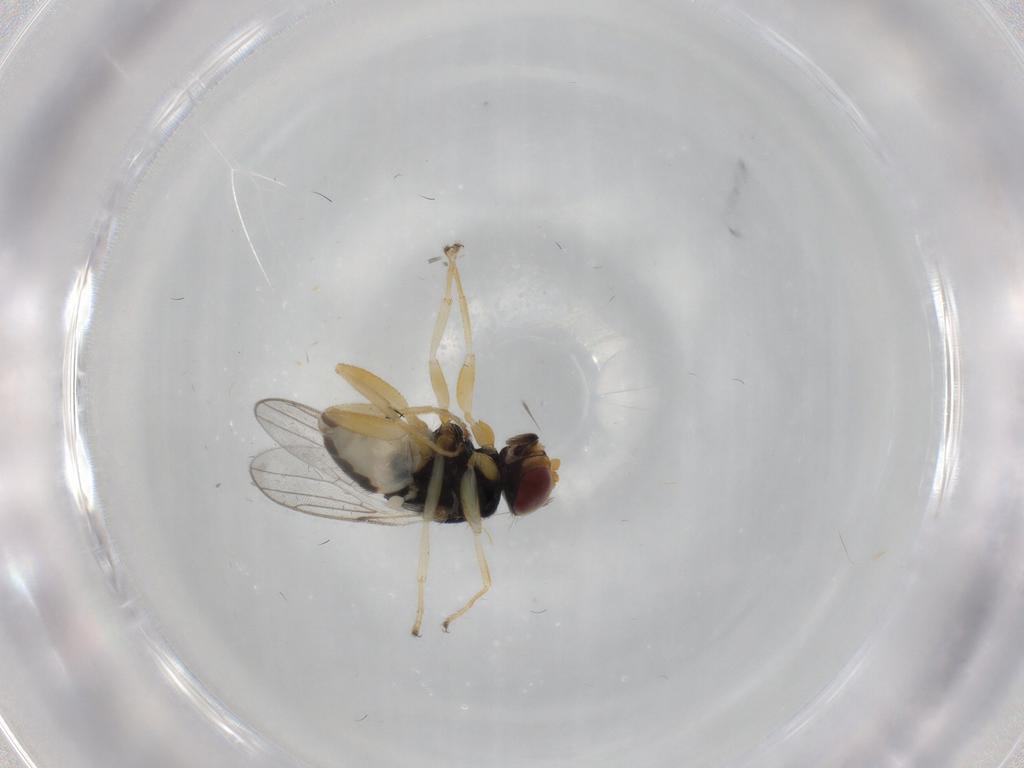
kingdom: Animalia
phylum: Arthropoda
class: Insecta
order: Diptera
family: Chloropidae
